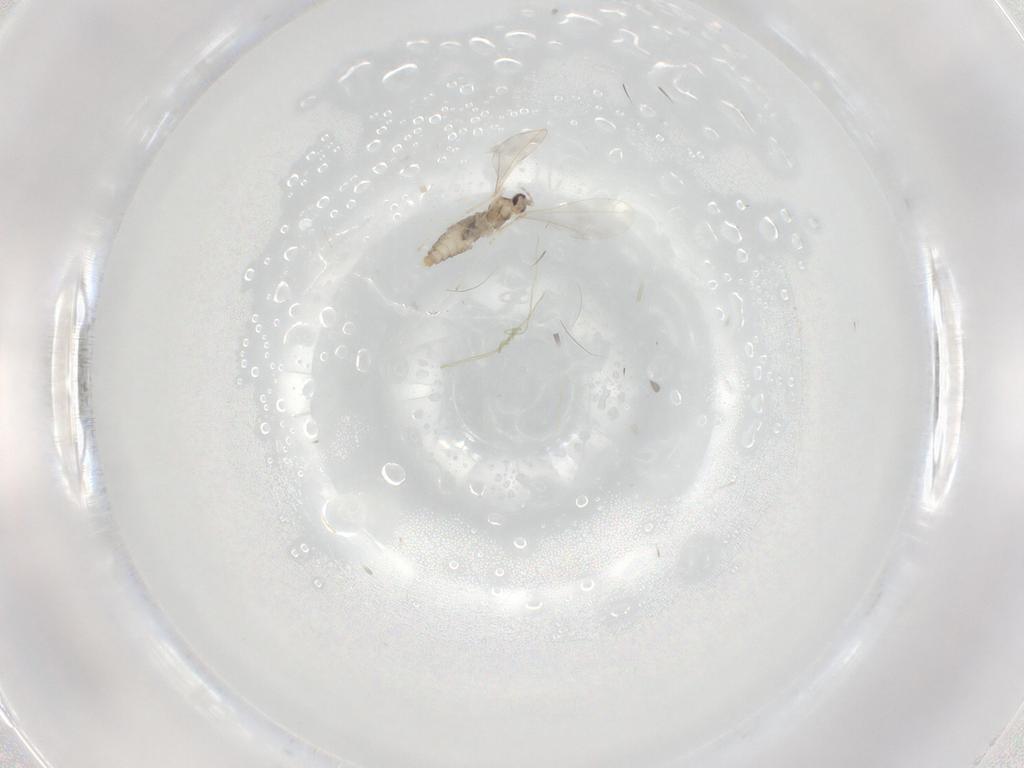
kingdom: Animalia
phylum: Arthropoda
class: Insecta
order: Diptera
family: Cecidomyiidae
